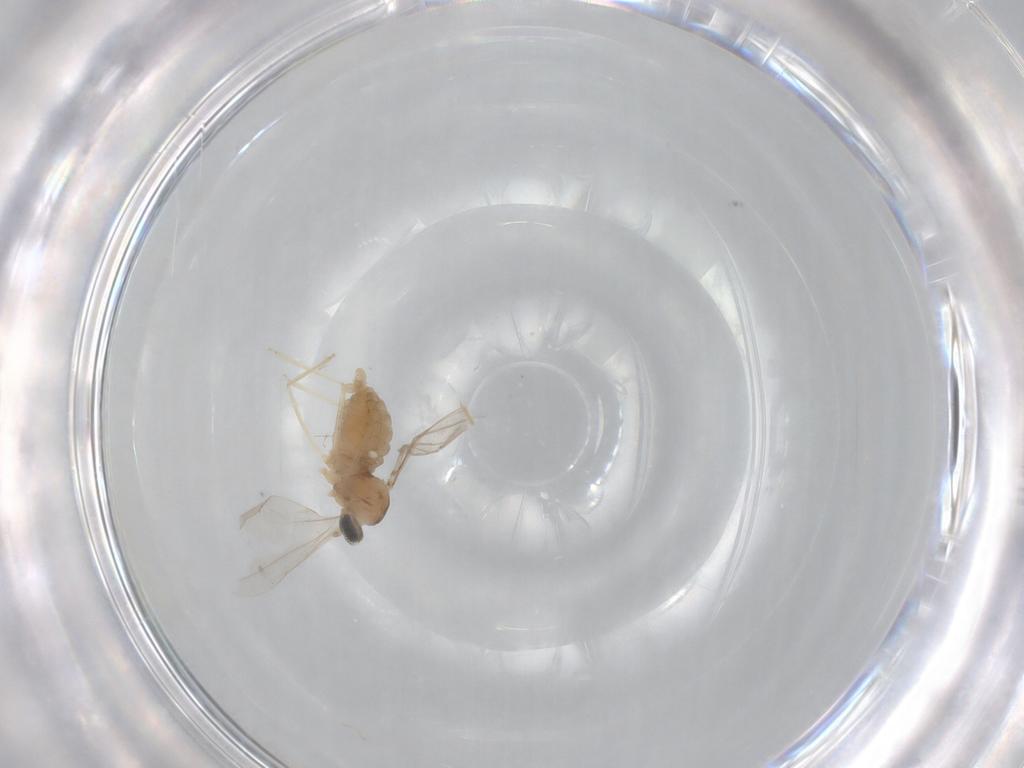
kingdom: Animalia
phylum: Arthropoda
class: Insecta
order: Diptera
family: Cecidomyiidae
